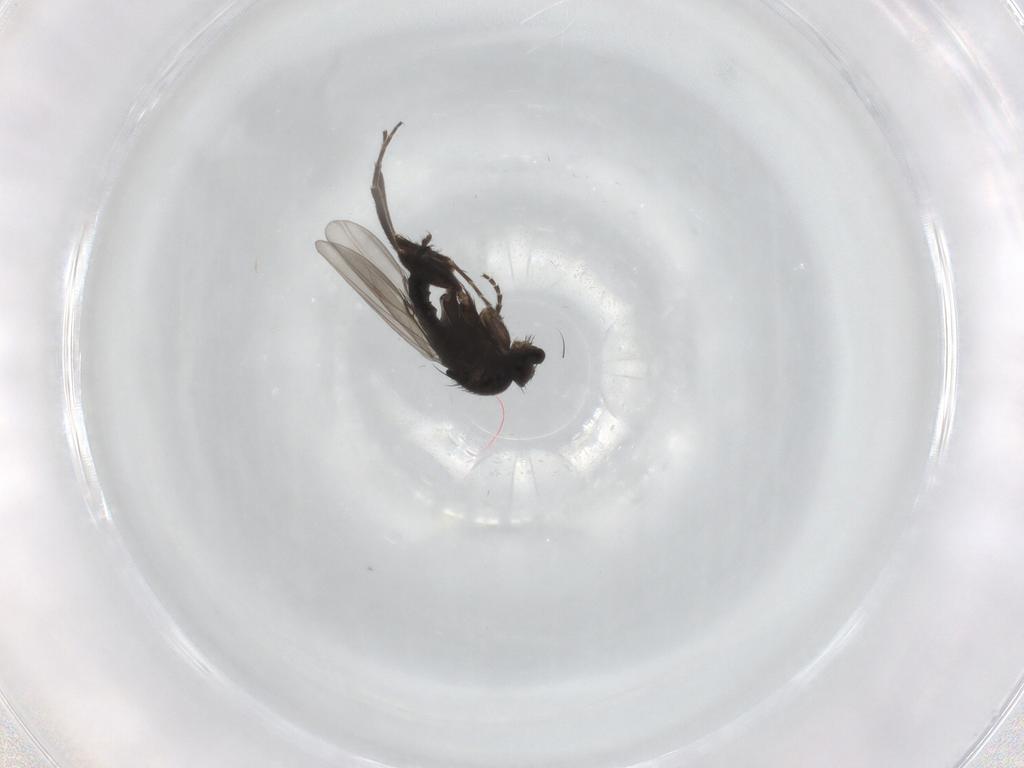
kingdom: Animalia
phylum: Arthropoda
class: Insecta
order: Diptera
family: Phoridae
